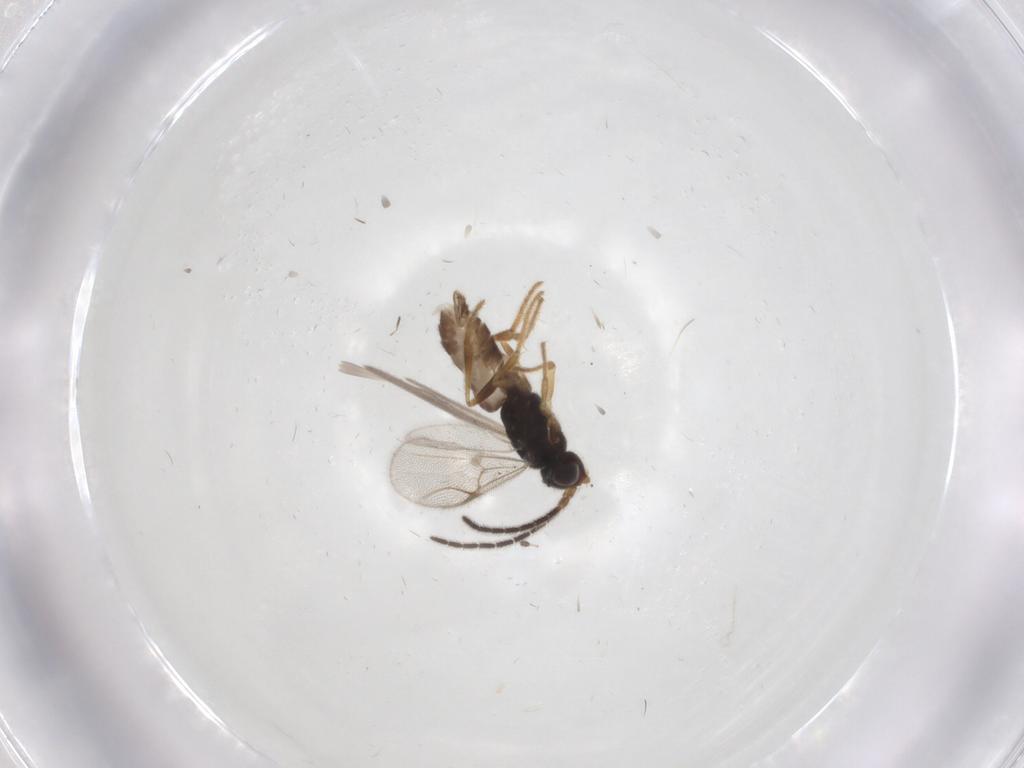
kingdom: Animalia
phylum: Arthropoda
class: Insecta
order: Hymenoptera
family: Dryinidae
